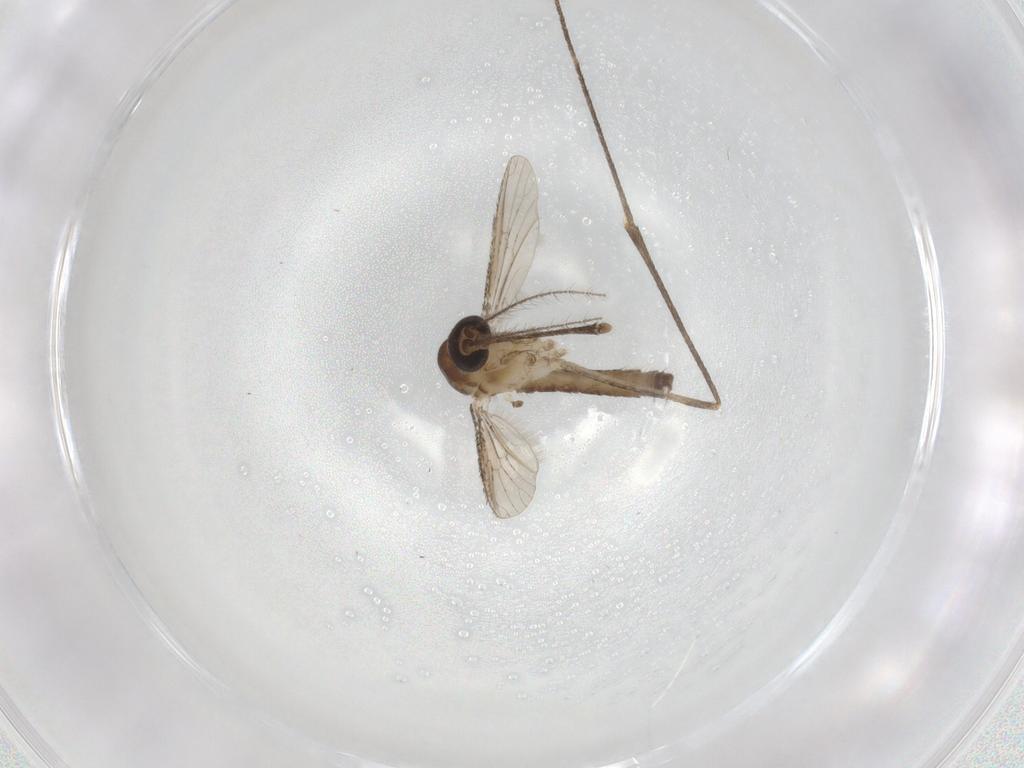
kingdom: Animalia
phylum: Arthropoda
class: Insecta
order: Diptera
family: Culicidae
